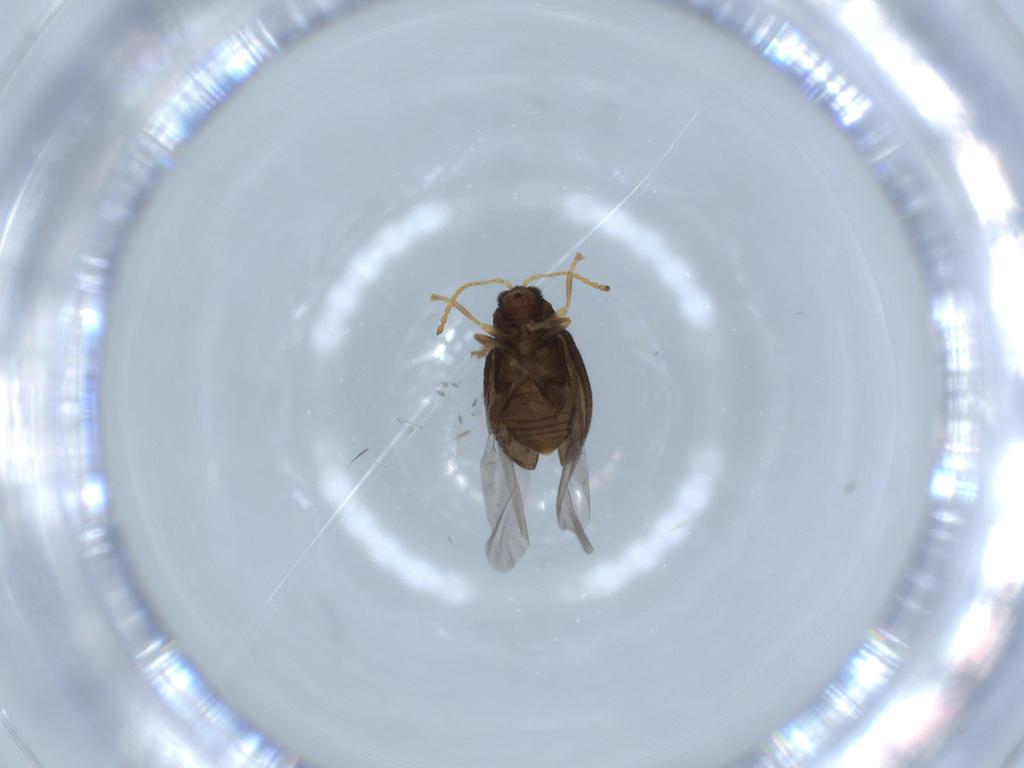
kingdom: Animalia
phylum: Arthropoda
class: Insecta
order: Coleoptera
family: Chrysomelidae
